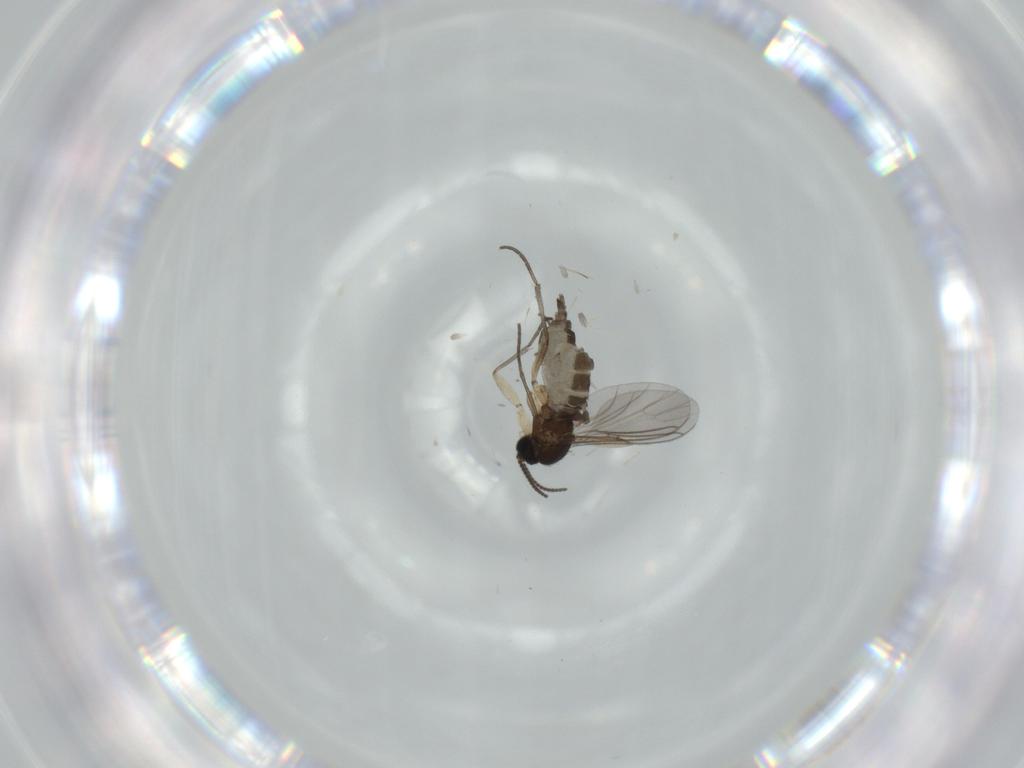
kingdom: Animalia
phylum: Arthropoda
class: Insecta
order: Diptera
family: Sciaridae
